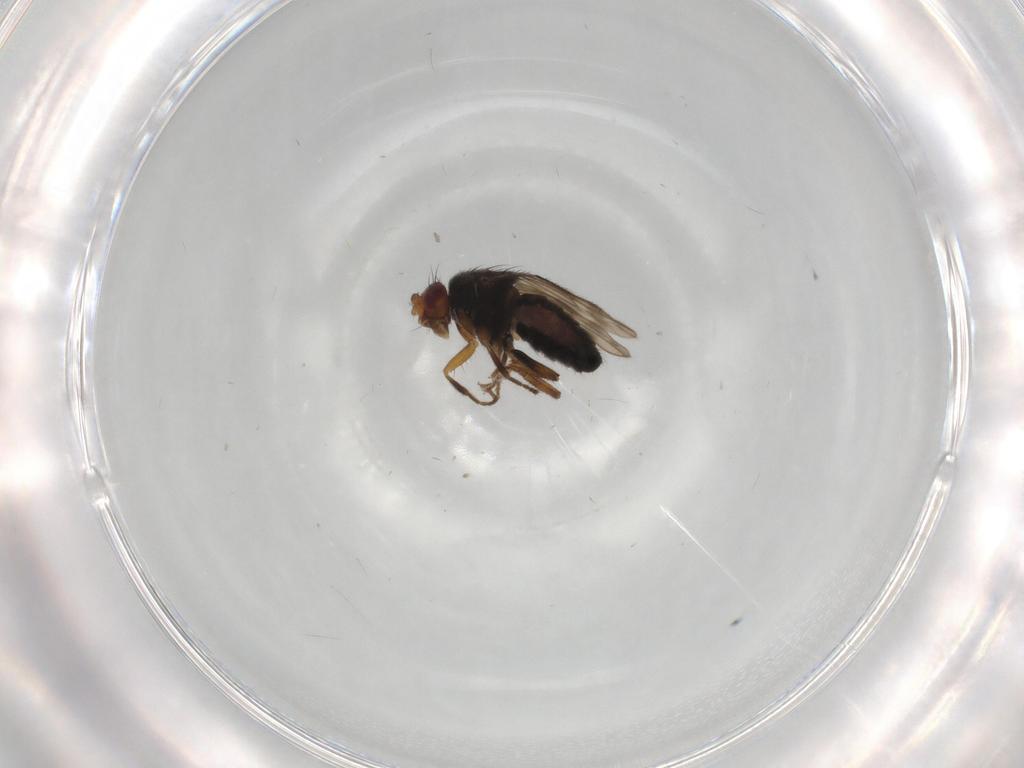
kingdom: Animalia
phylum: Arthropoda
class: Insecta
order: Diptera
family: Sphaeroceridae
